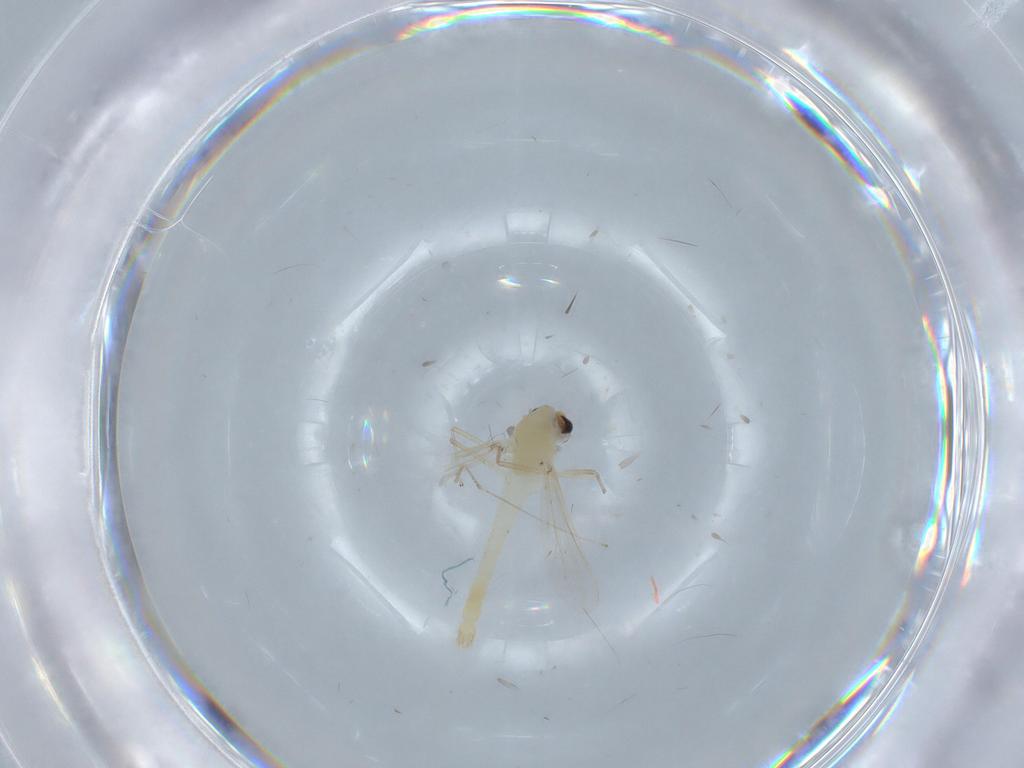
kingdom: Animalia
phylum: Arthropoda
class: Insecta
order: Diptera
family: Chironomidae
